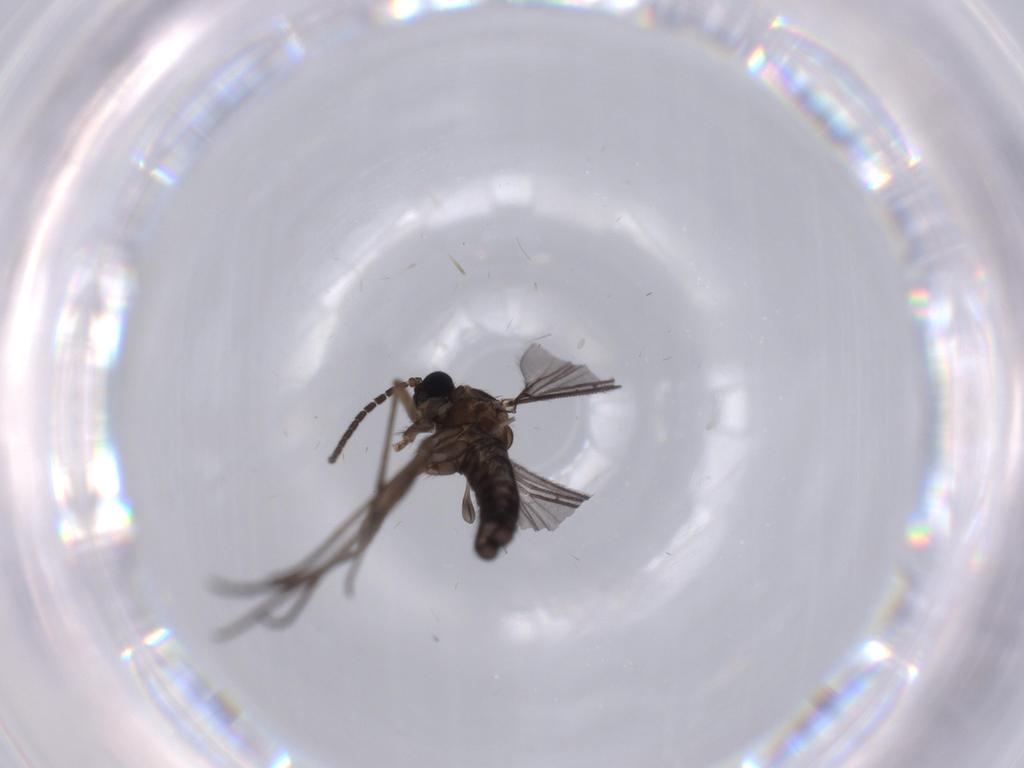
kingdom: Animalia
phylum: Arthropoda
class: Insecta
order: Diptera
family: Sciaridae
